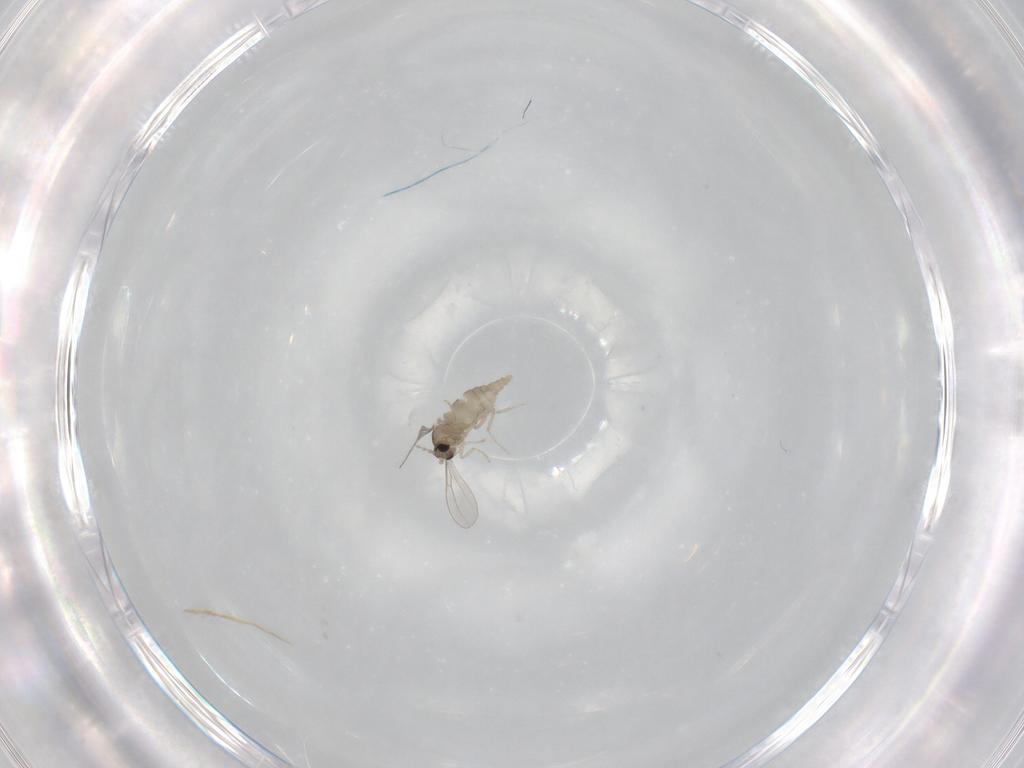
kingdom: Animalia
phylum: Arthropoda
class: Insecta
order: Diptera
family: Cecidomyiidae
